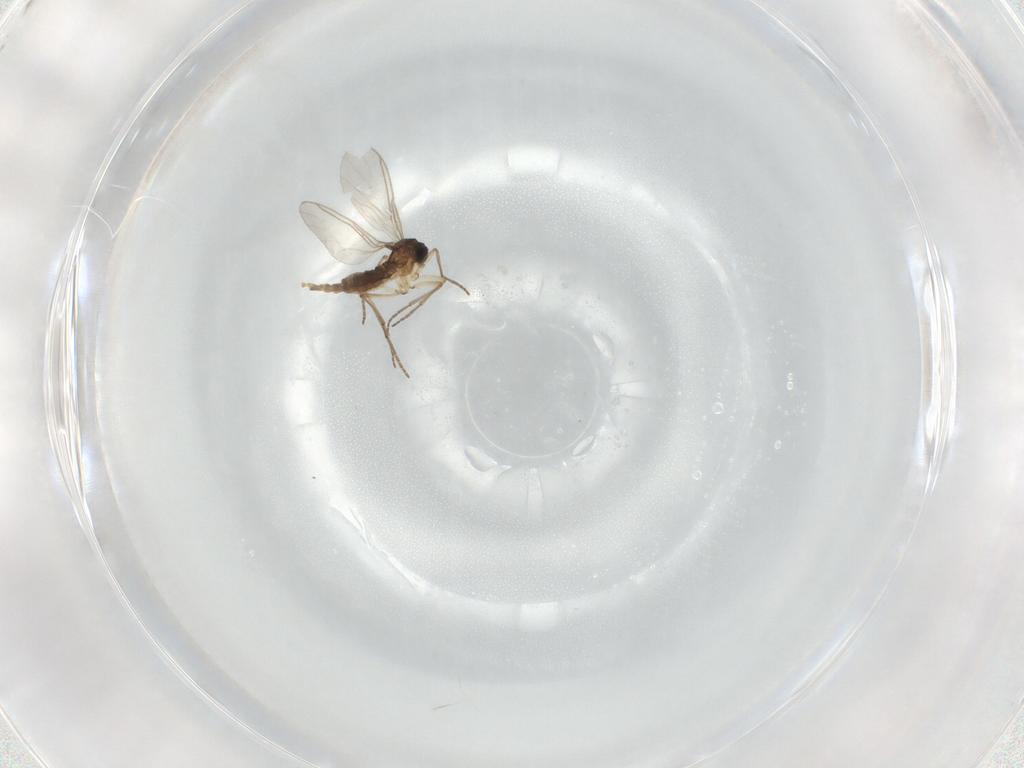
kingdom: Animalia
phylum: Arthropoda
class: Insecta
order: Diptera
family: Sciaridae
